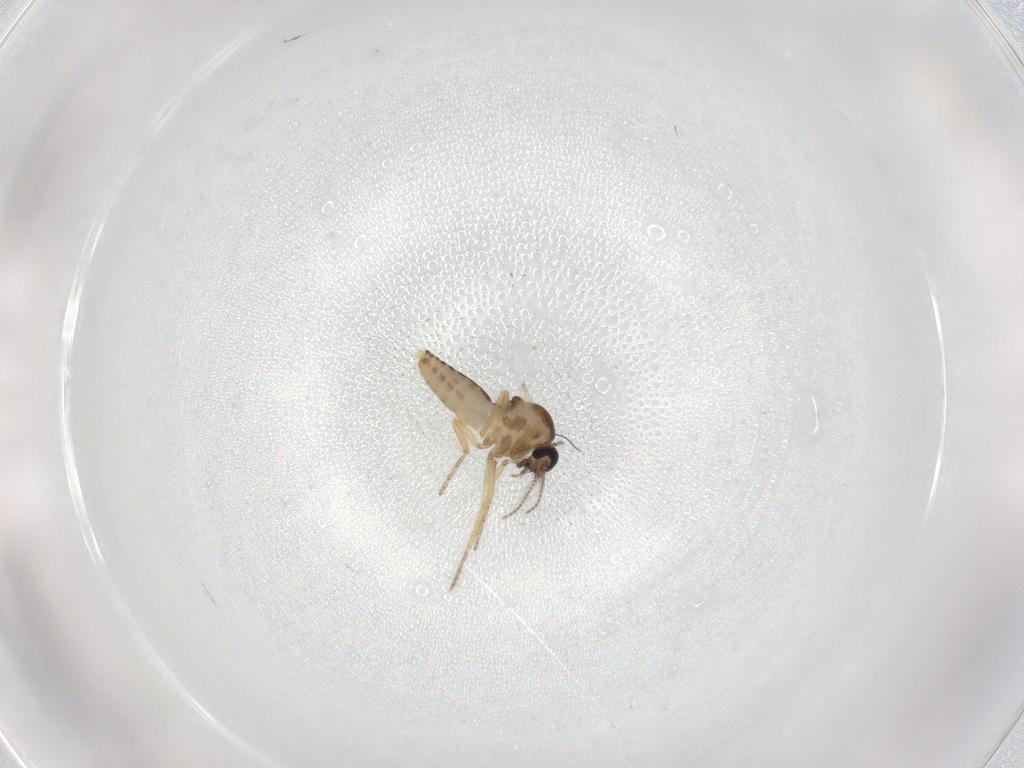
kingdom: Animalia
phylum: Arthropoda
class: Insecta
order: Diptera
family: Ceratopogonidae
